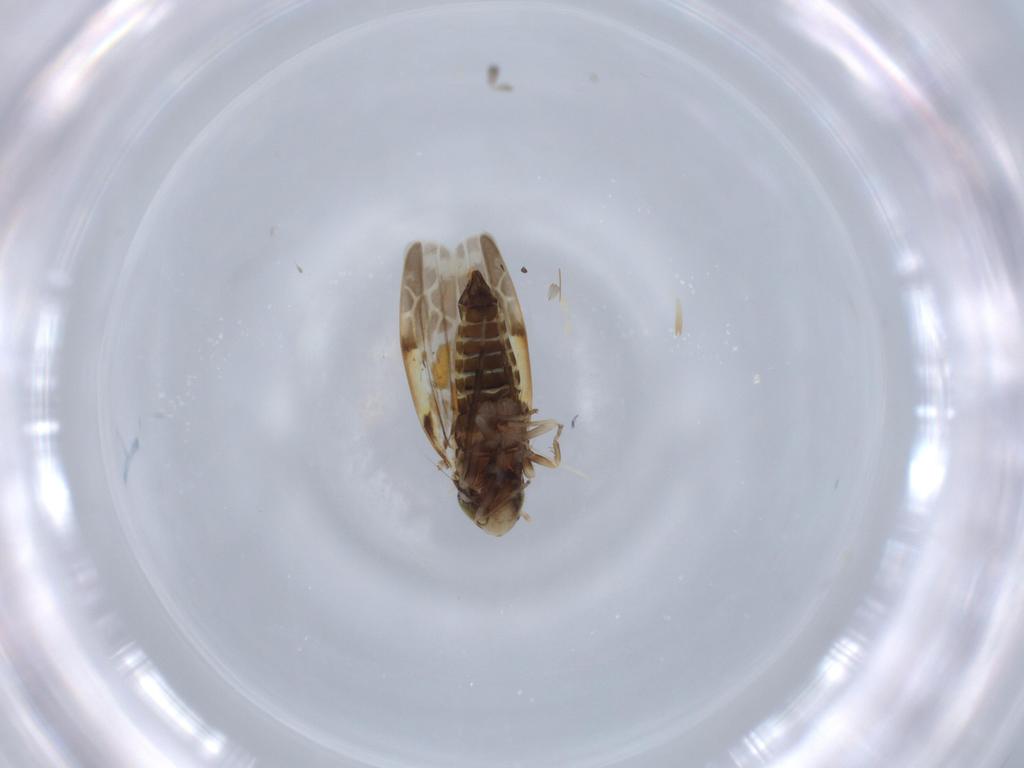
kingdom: Animalia
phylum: Arthropoda
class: Insecta
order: Hemiptera
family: Cicadellidae
